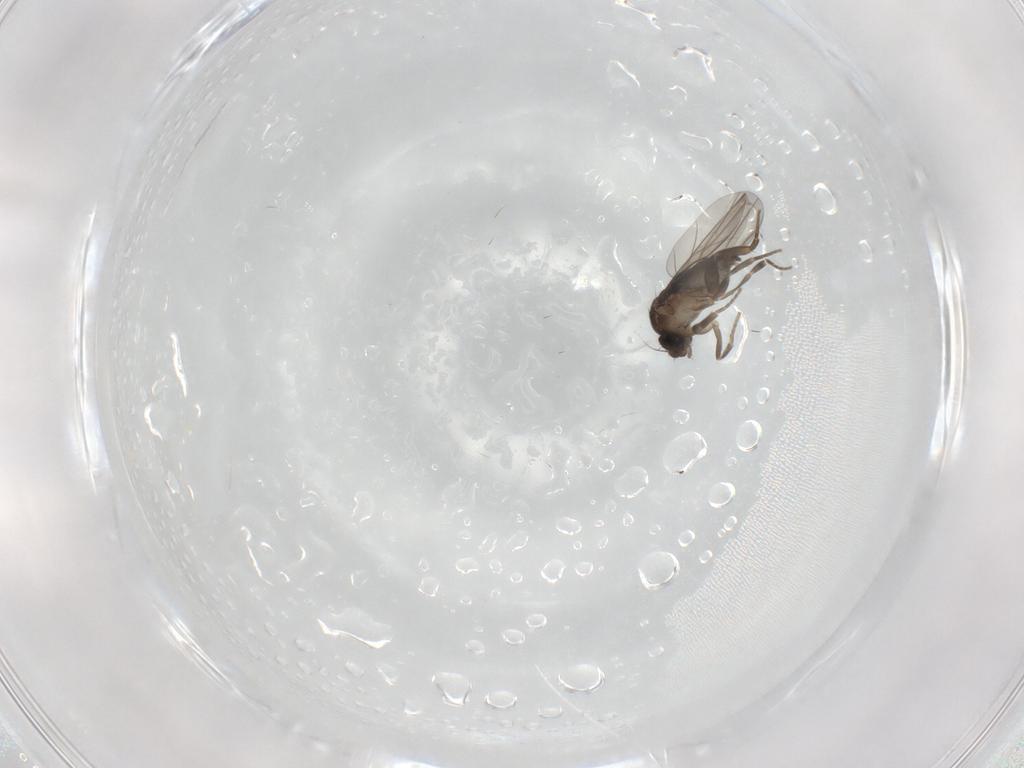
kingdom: Animalia
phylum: Arthropoda
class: Insecta
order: Diptera
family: Phoridae
